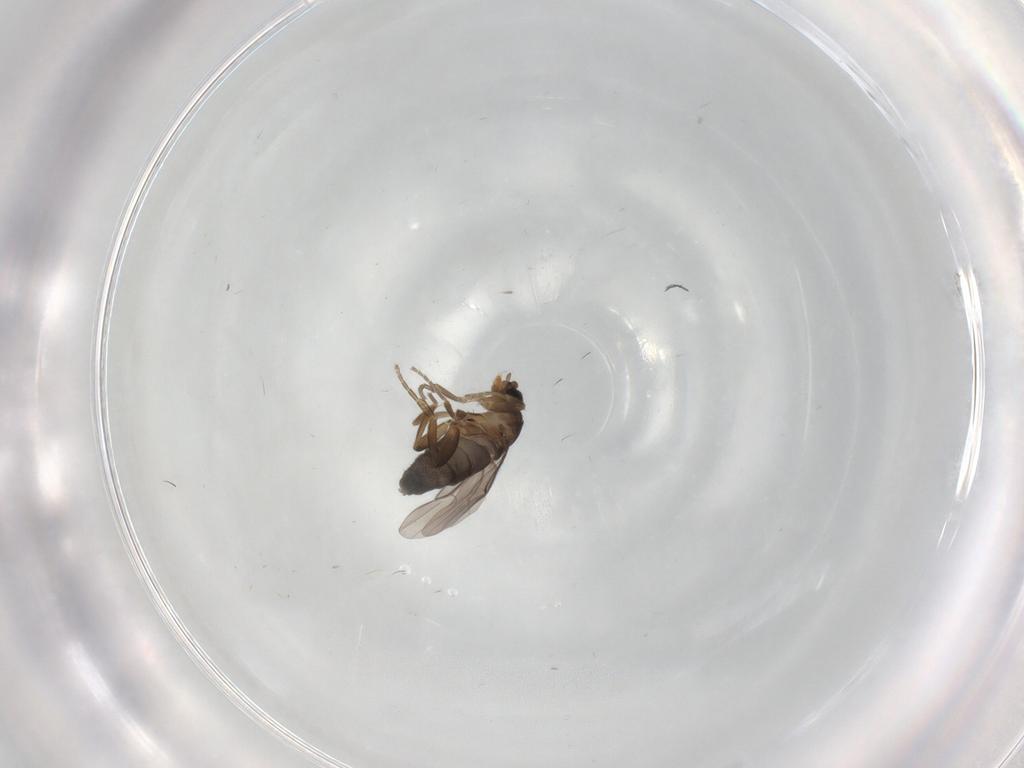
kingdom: Animalia
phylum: Arthropoda
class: Insecta
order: Diptera
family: Phoridae
